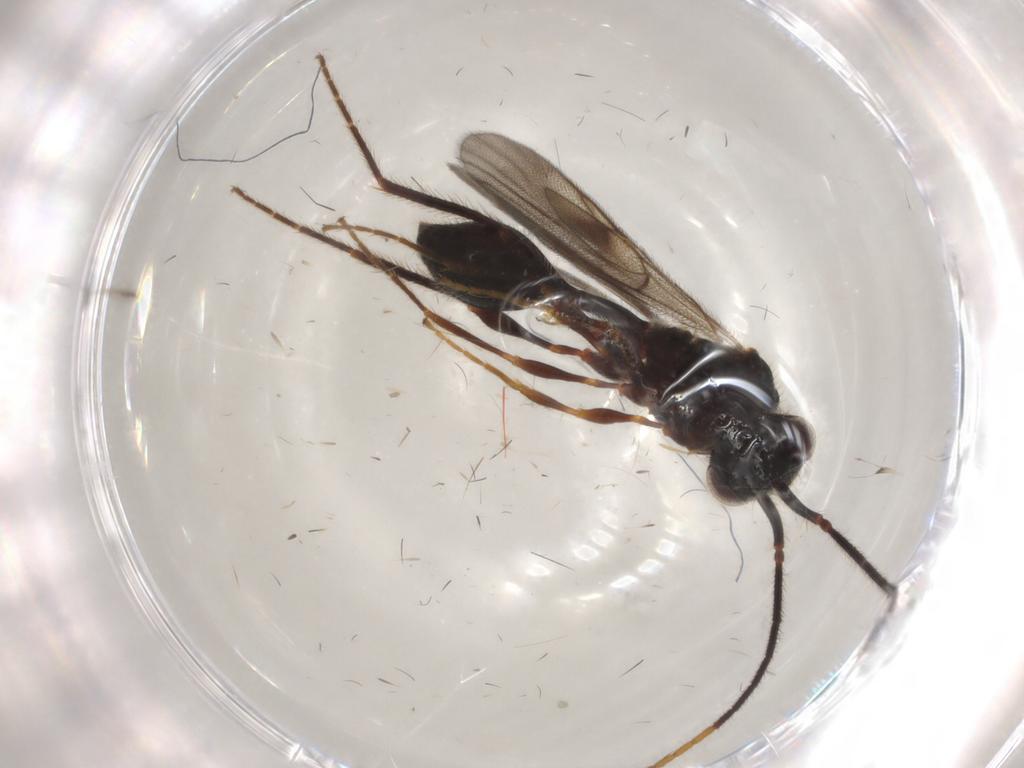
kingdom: Animalia
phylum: Arthropoda
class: Insecta
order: Hymenoptera
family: Diapriidae
